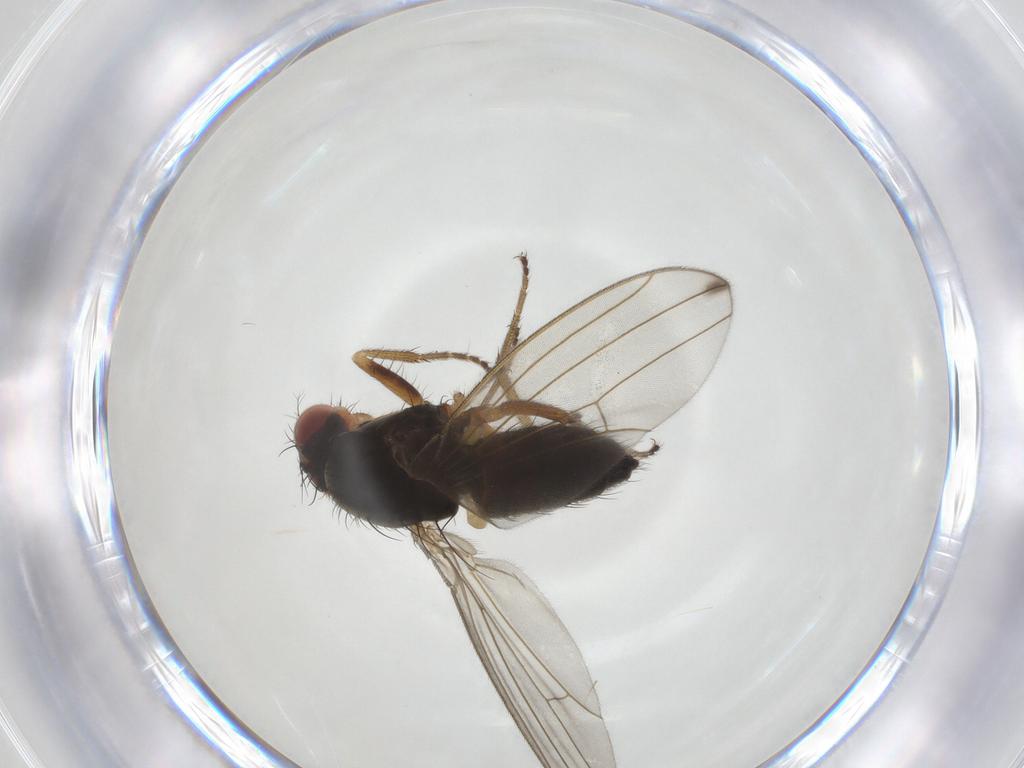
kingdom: Animalia
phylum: Arthropoda
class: Insecta
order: Diptera
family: Drosophilidae
